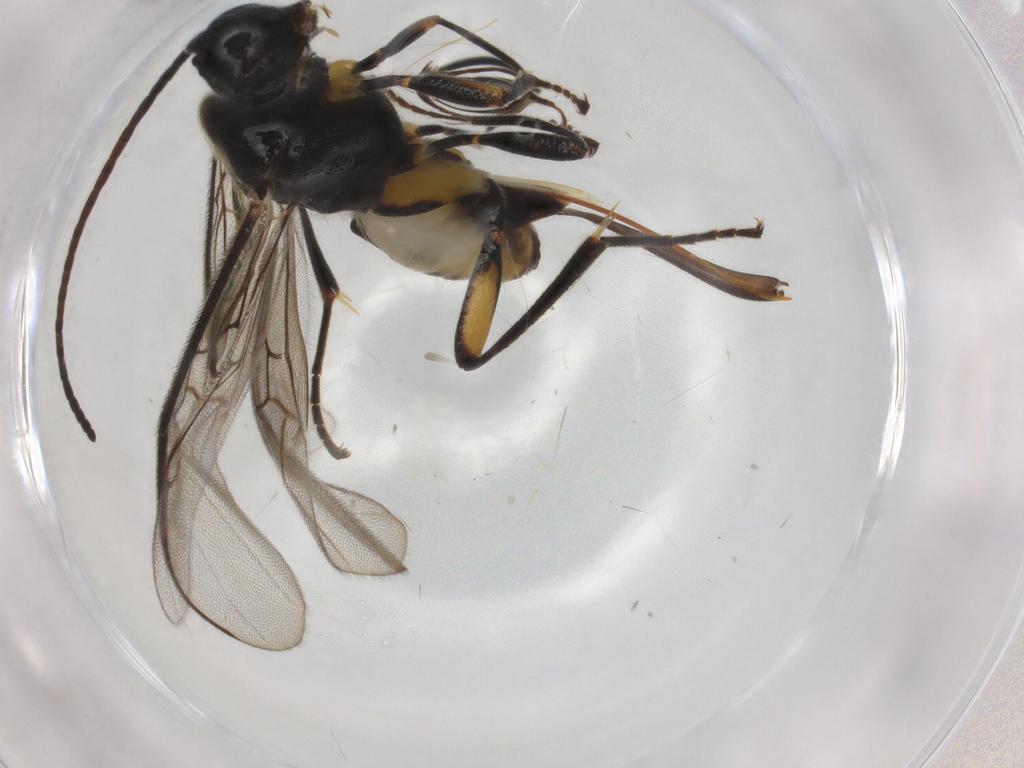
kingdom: Animalia
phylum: Arthropoda
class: Insecta
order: Hymenoptera
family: Braconidae
